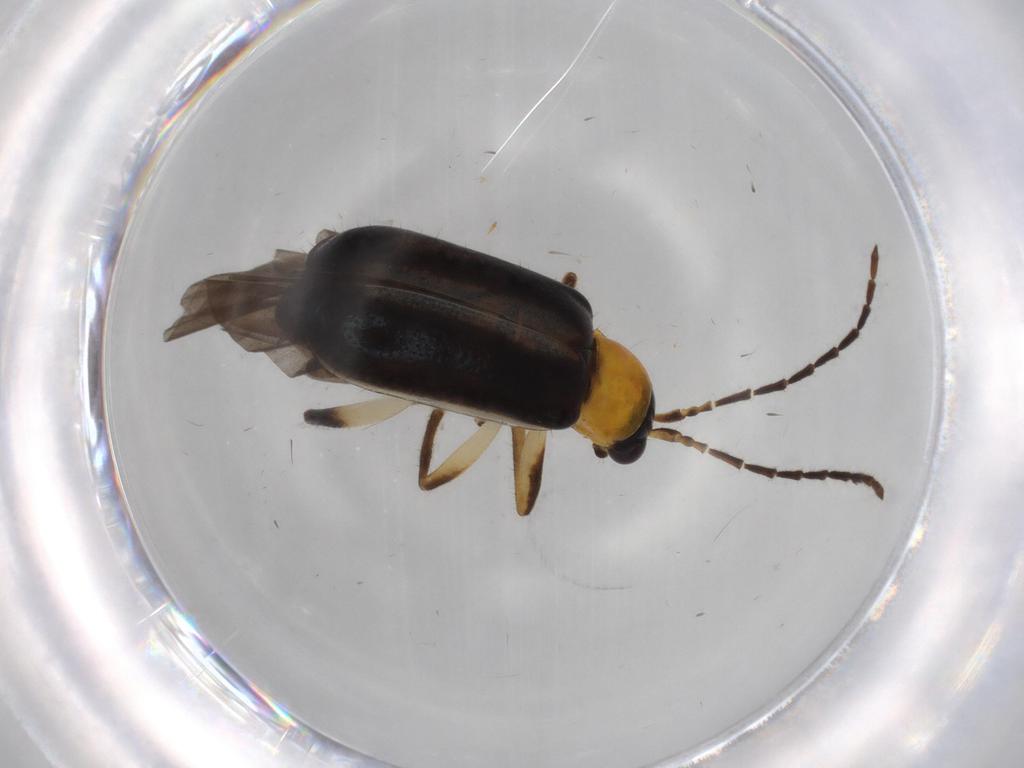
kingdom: Animalia
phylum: Arthropoda
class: Insecta
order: Coleoptera
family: Chrysomelidae
